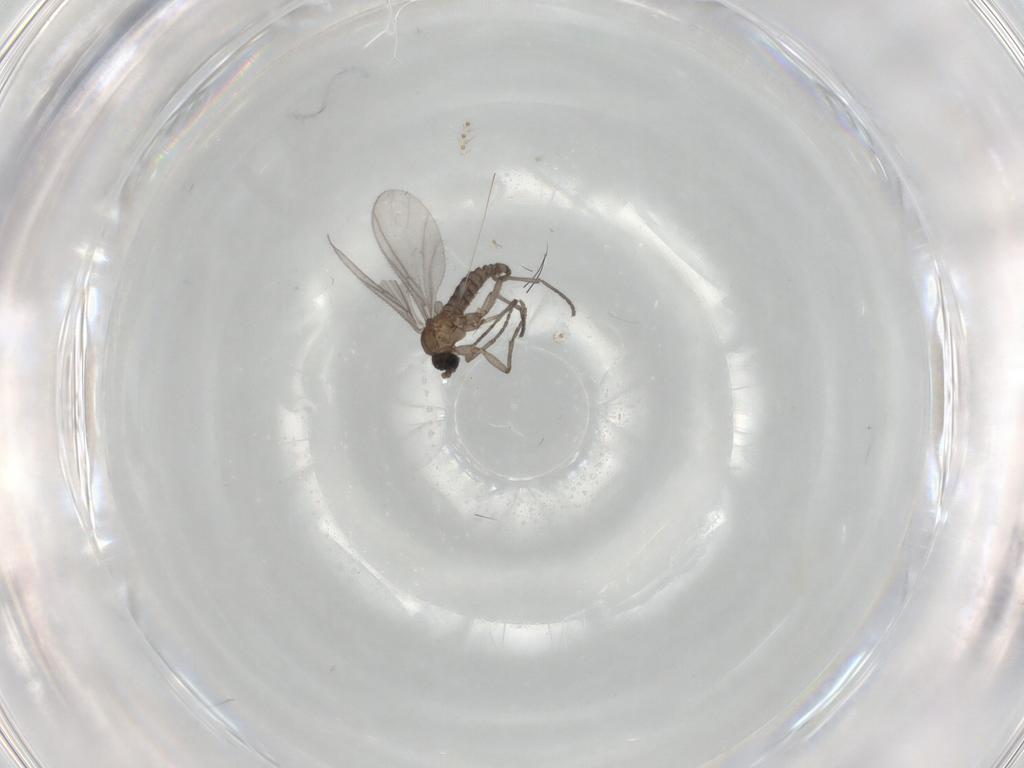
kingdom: Animalia
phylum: Arthropoda
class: Insecta
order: Diptera
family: Sciaridae
